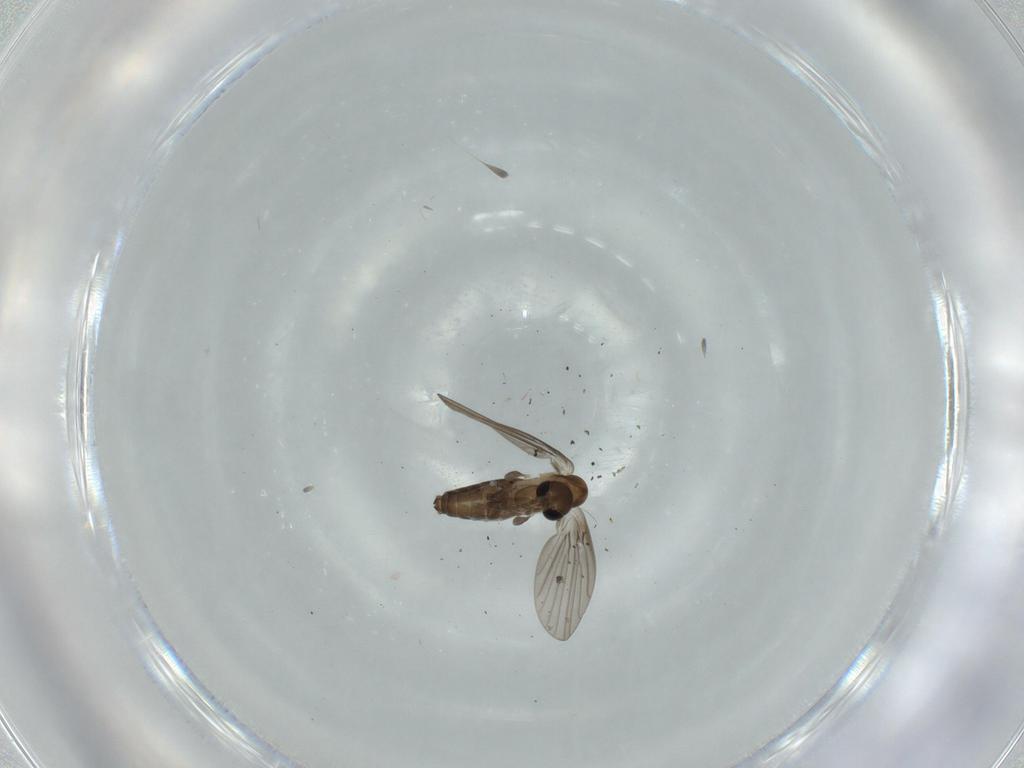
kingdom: Animalia
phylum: Arthropoda
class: Insecta
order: Diptera
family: Psychodidae
